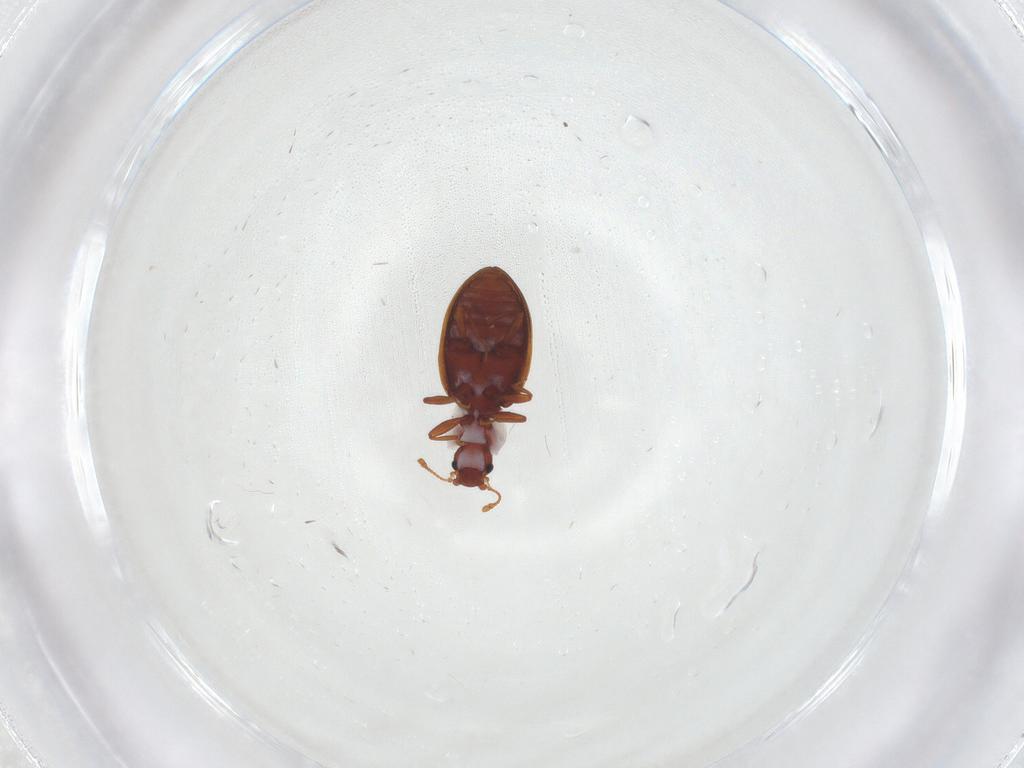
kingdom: Animalia
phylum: Arthropoda
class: Insecta
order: Coleoptera
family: Latridiidae
